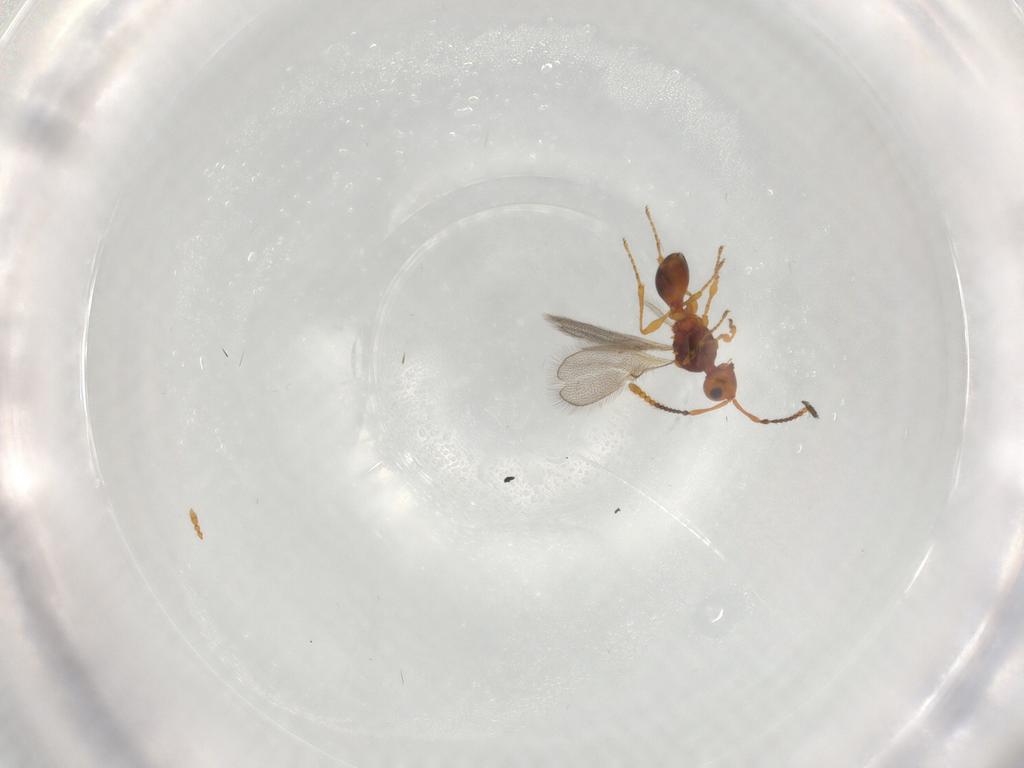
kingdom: Animalia
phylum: Arthropoda
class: Insecta
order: Hymenoptera
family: Diapriidae
